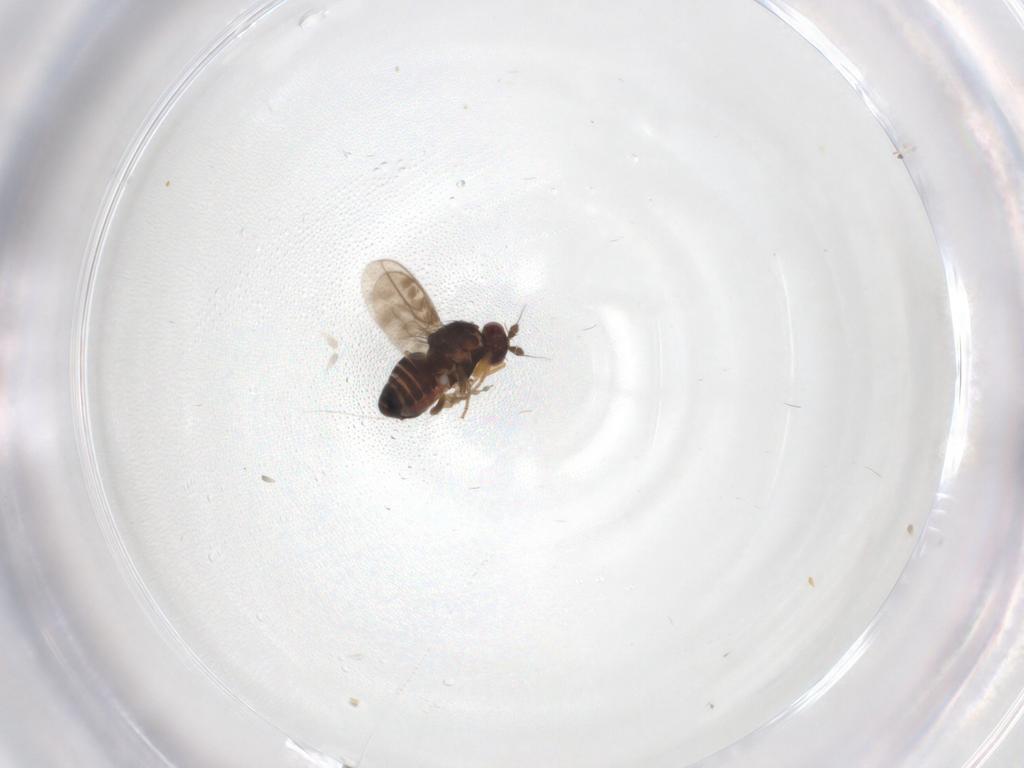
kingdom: Animalia
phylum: Arthropoda
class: Insecta
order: Diptera
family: Sphaeroceridae
